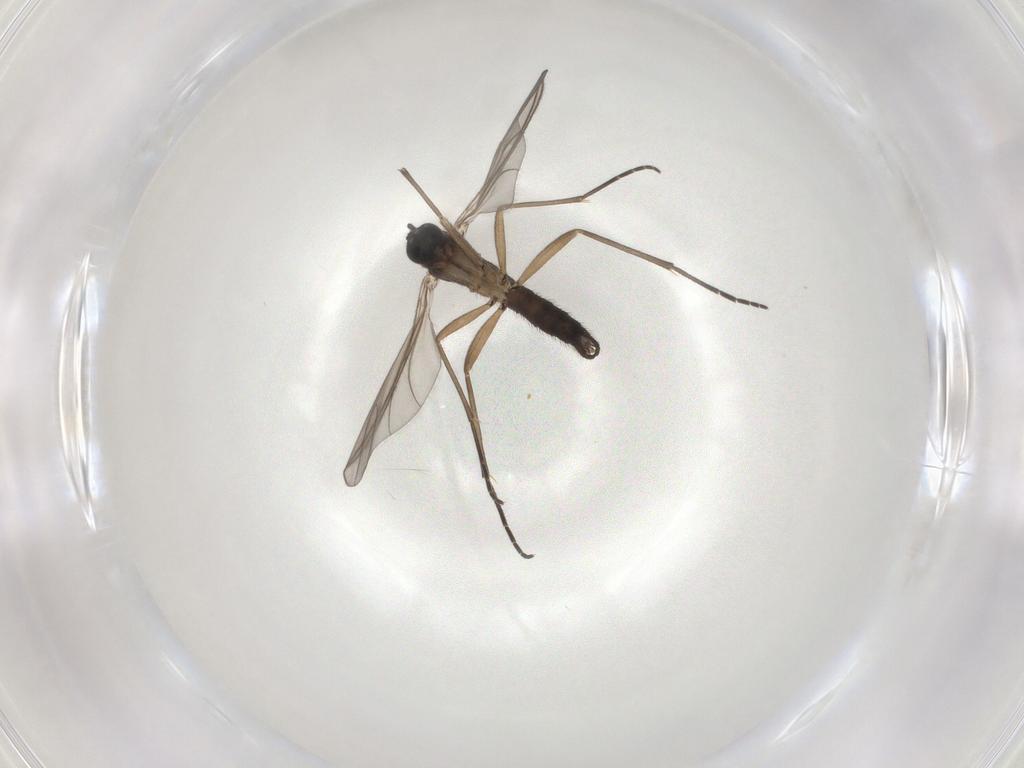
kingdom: Animalia
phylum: Arthropoda
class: Insecta
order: Diptera
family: Sciaridae
